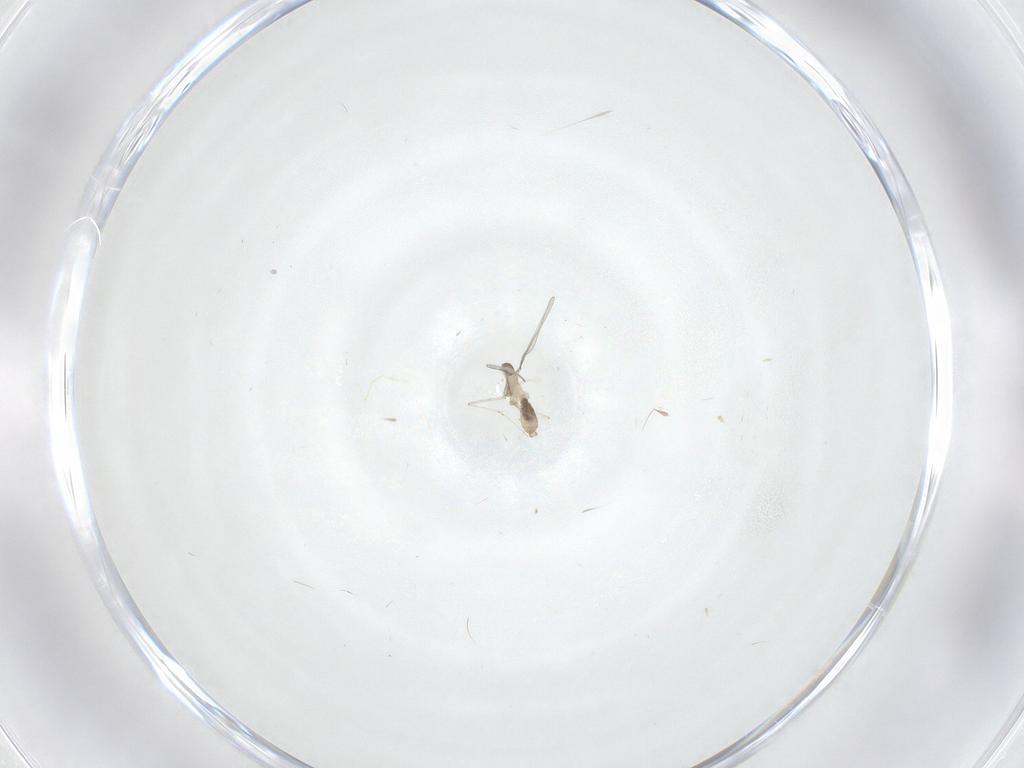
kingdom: Animalia
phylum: Arthropoda
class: Insecta
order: Diptera
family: Cecidomyiidae
